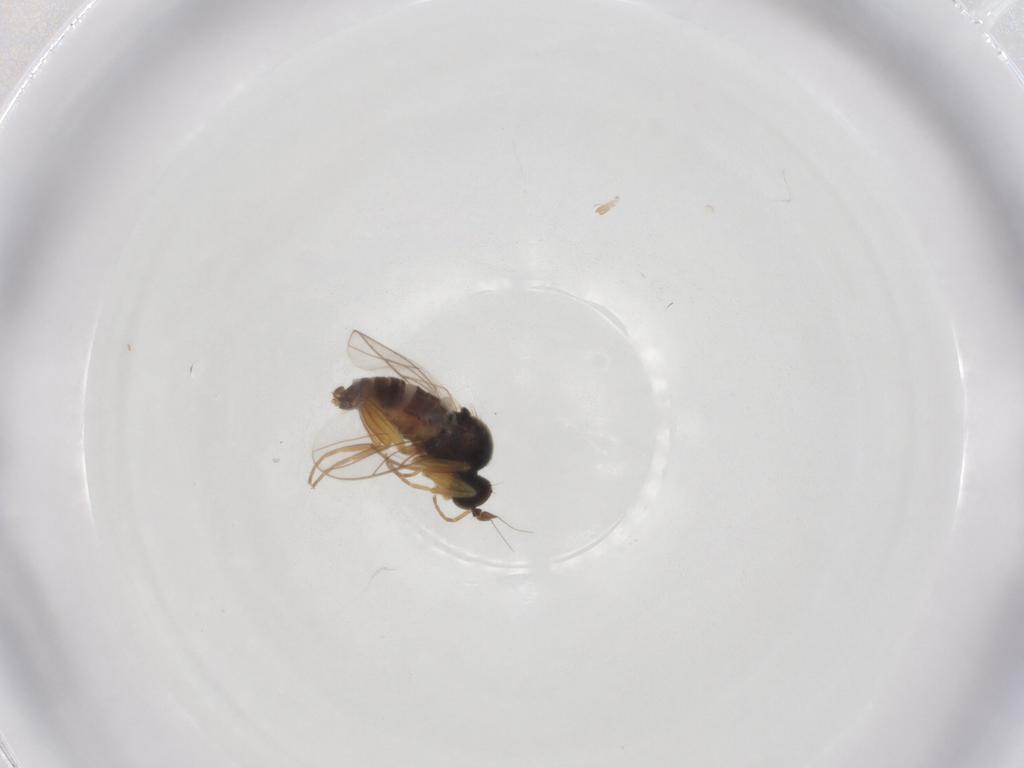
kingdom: Animalia
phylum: Arthropoda
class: Insecta
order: Diptera
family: Hybotidae
